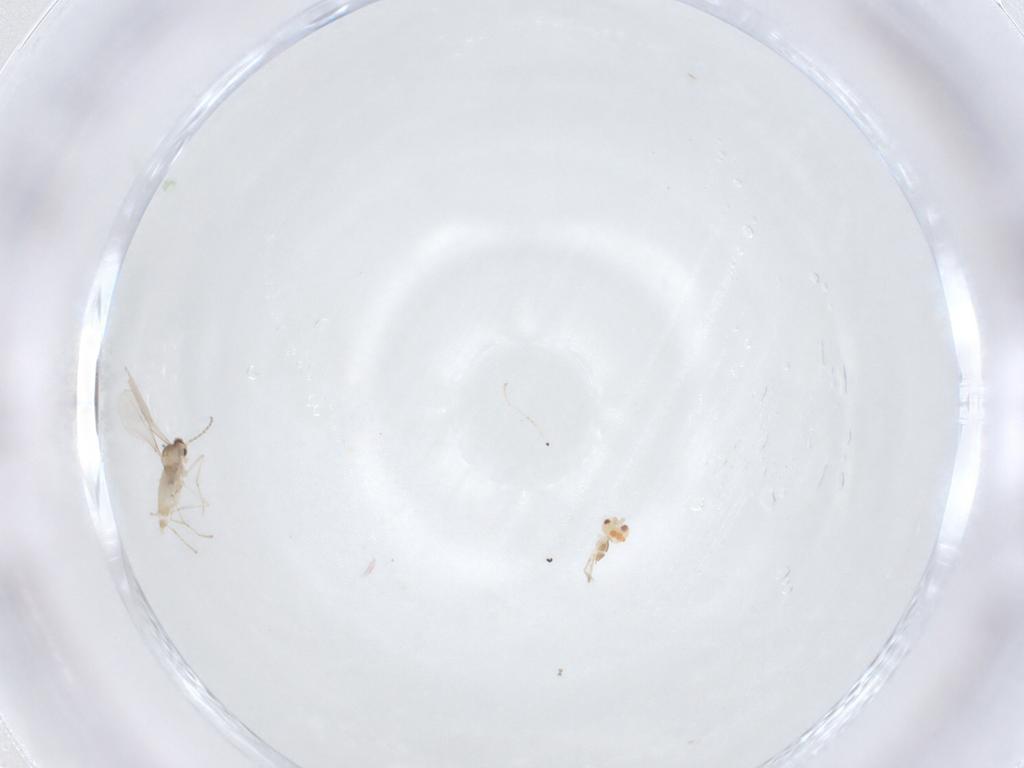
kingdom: Animalia
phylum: Arthropoda
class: Insecta
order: Diptera
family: Cecidomyiidae
